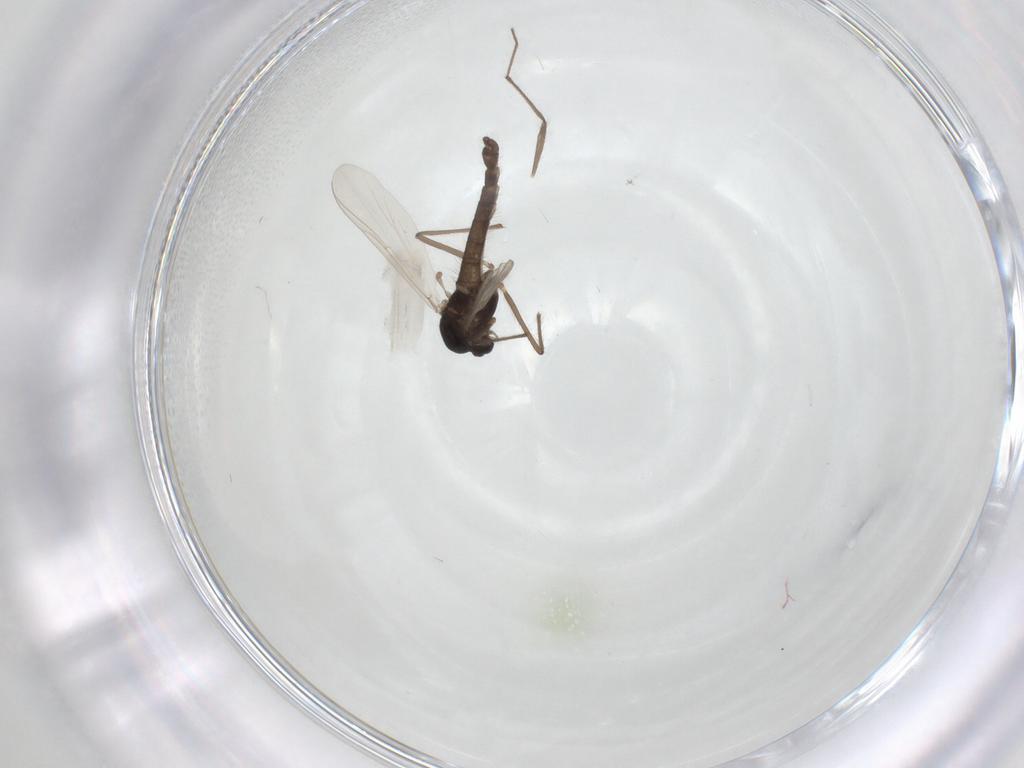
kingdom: Animalia
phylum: Arthropoda
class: Insecta
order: Diptera
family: Chironomidae
